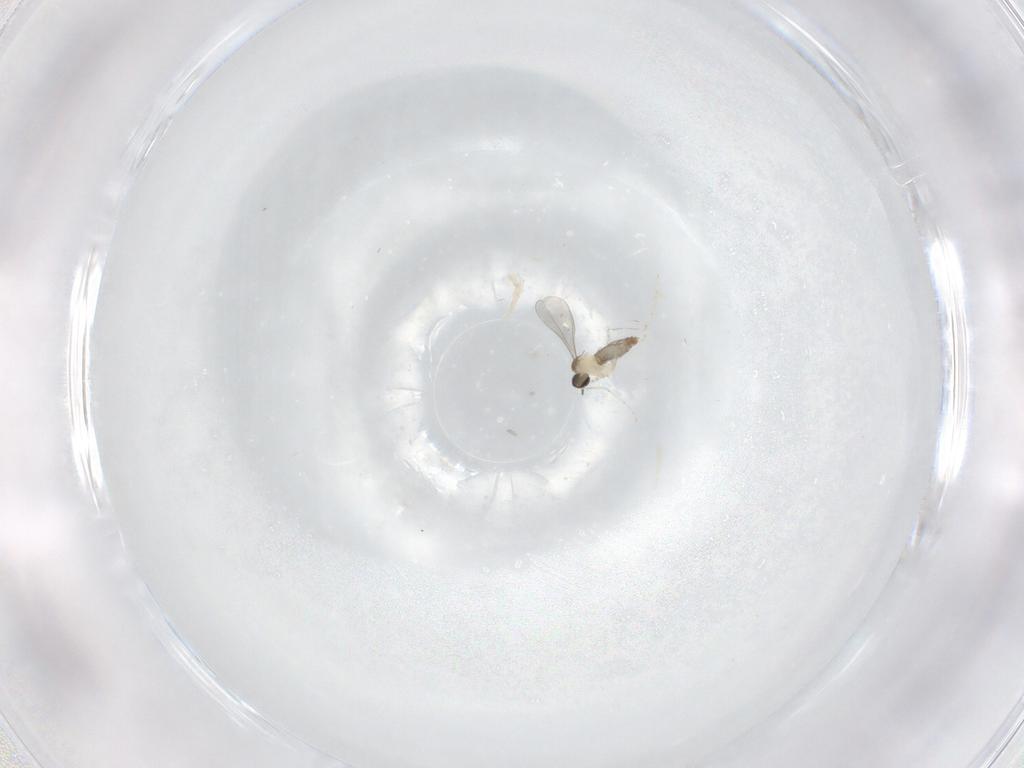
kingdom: Animalia
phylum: Arthropoda
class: Insecta
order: Diptera
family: Cecidomyiidae
